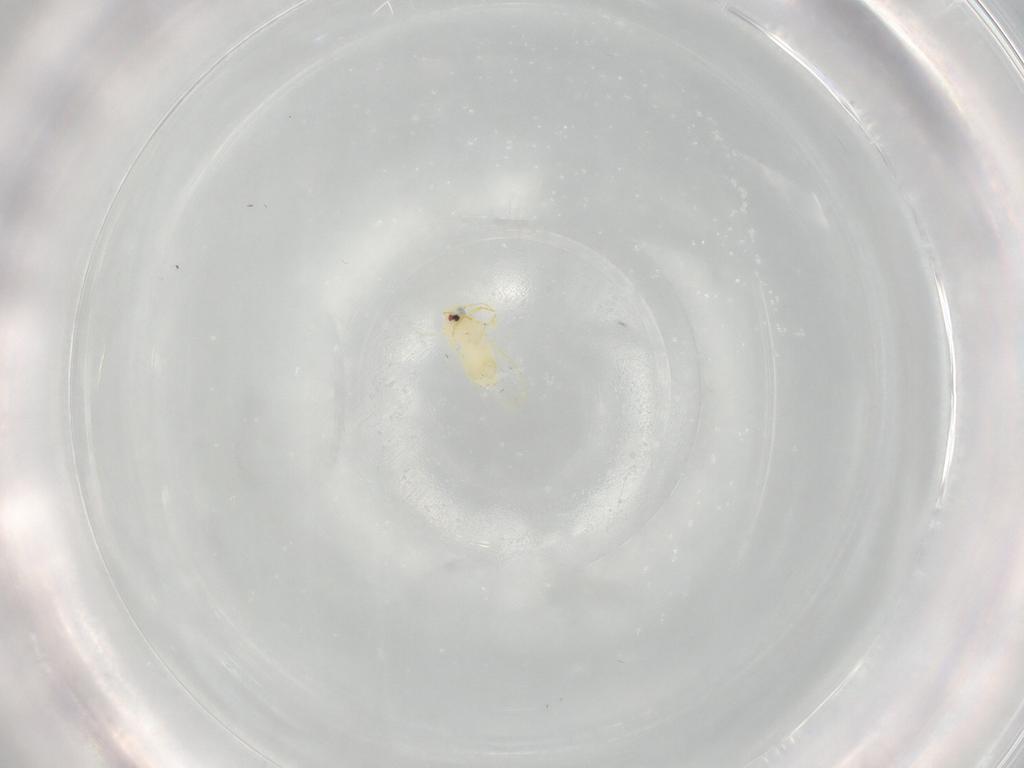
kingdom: Animalia
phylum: Arthropoda
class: Insecta
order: Hemiptera
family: Aleyrodidae
